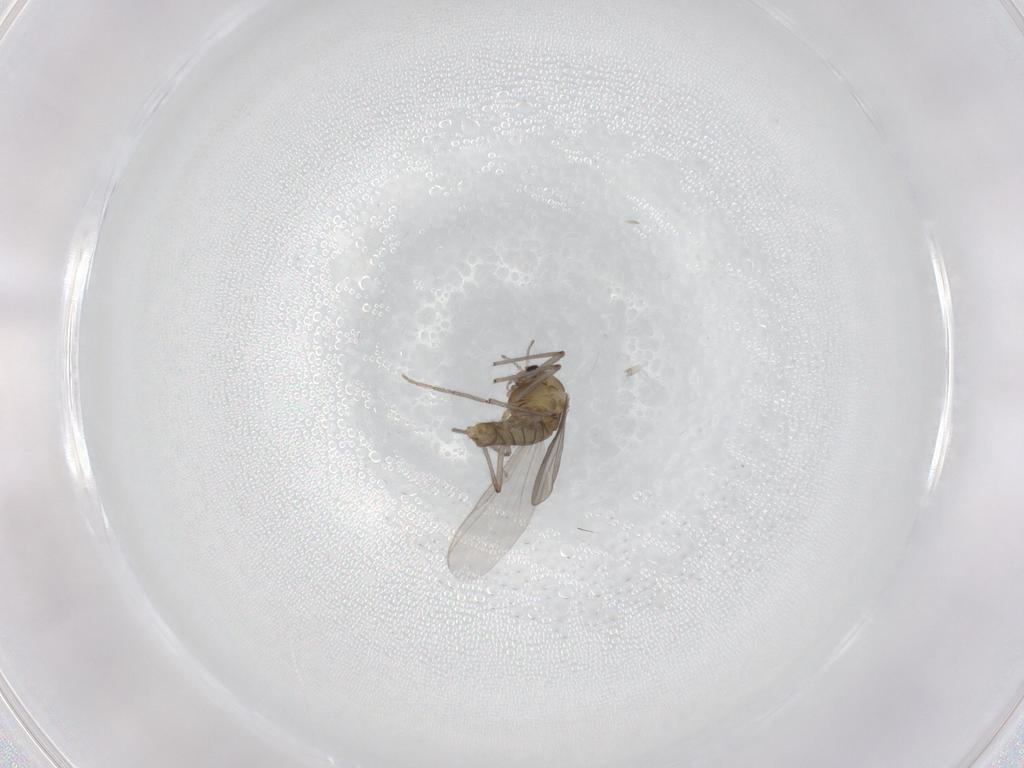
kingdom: Animalia
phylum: Arthropoda
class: Insecta
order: Diptera
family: Chironomidae
